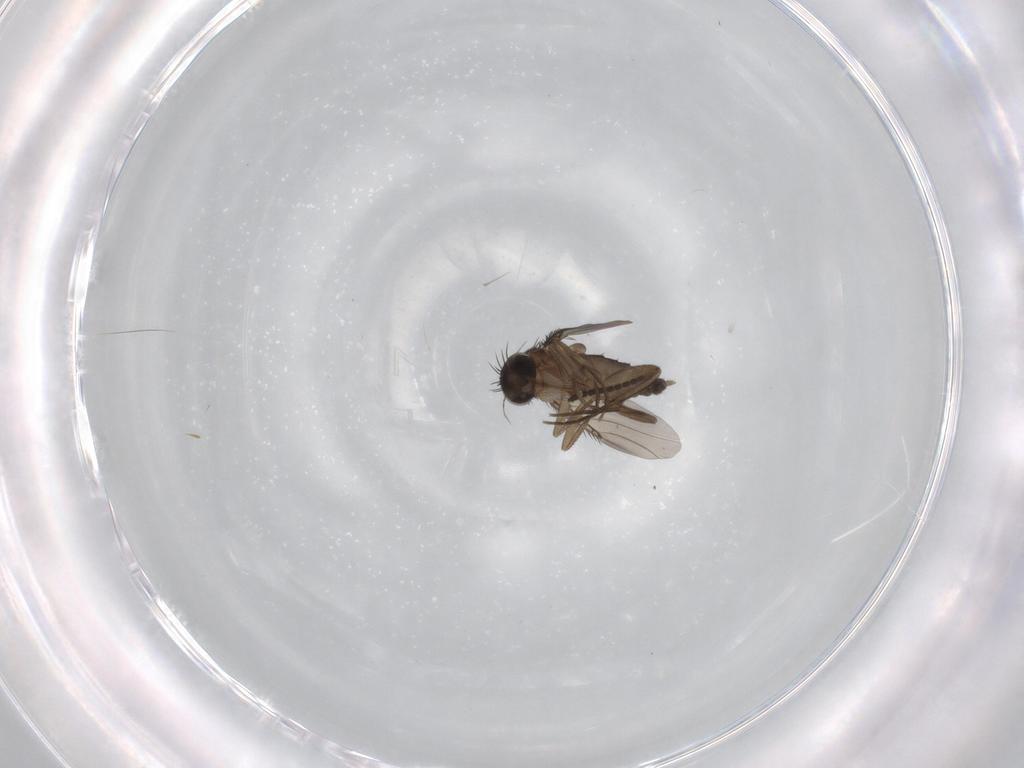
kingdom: Animalia
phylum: Arthropoda
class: Insecta
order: Diptera
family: Phoridae
